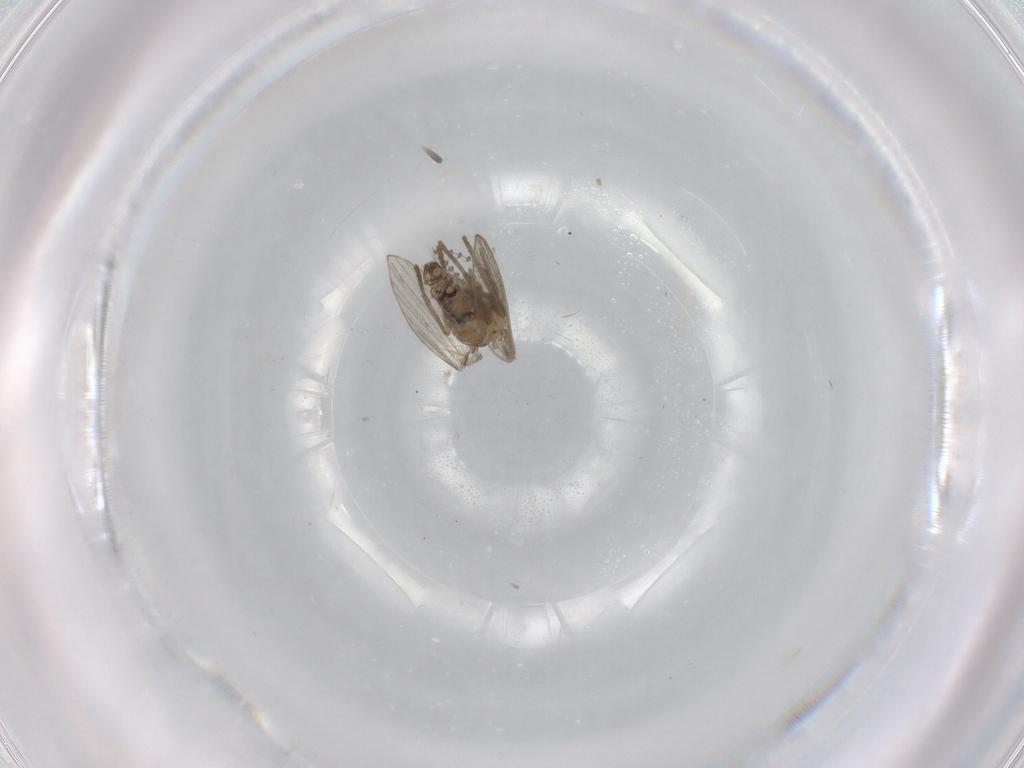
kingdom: Animalia
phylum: Arthropoda
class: Insecta
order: Diptera
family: Psychodidae
